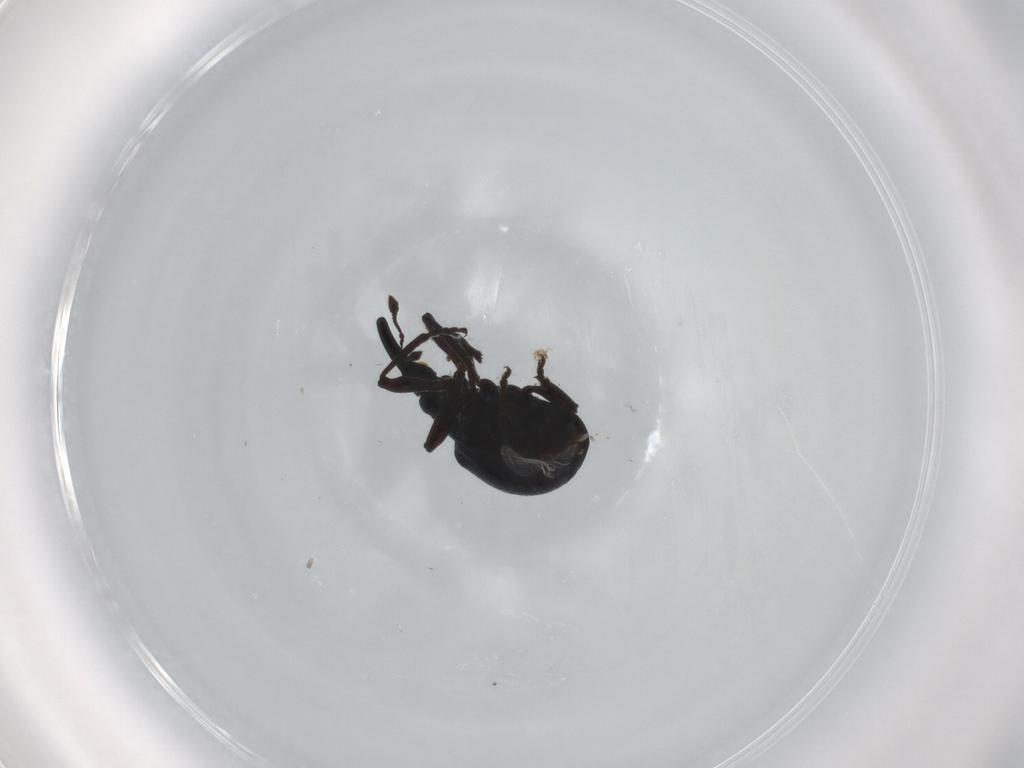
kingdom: Animalia
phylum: Arthropoda
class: Insecta
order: Coleoptera
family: Brentidae
